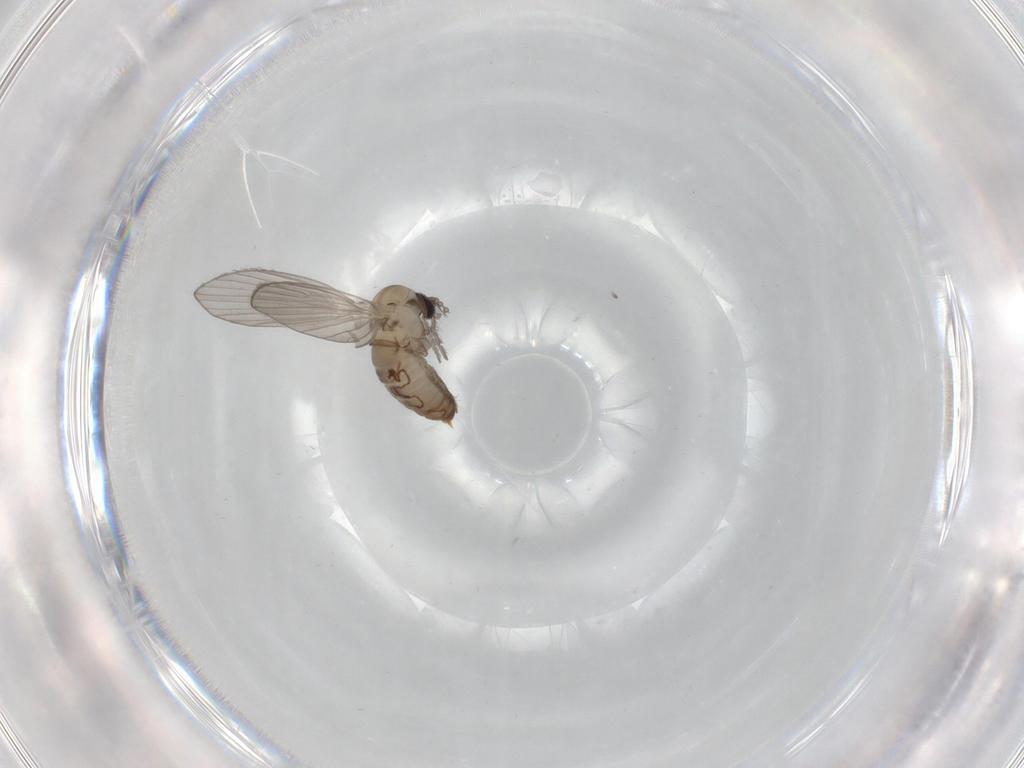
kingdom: Animalia
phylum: Arthropoda
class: Insecta
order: Diptera
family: Psychodidae
